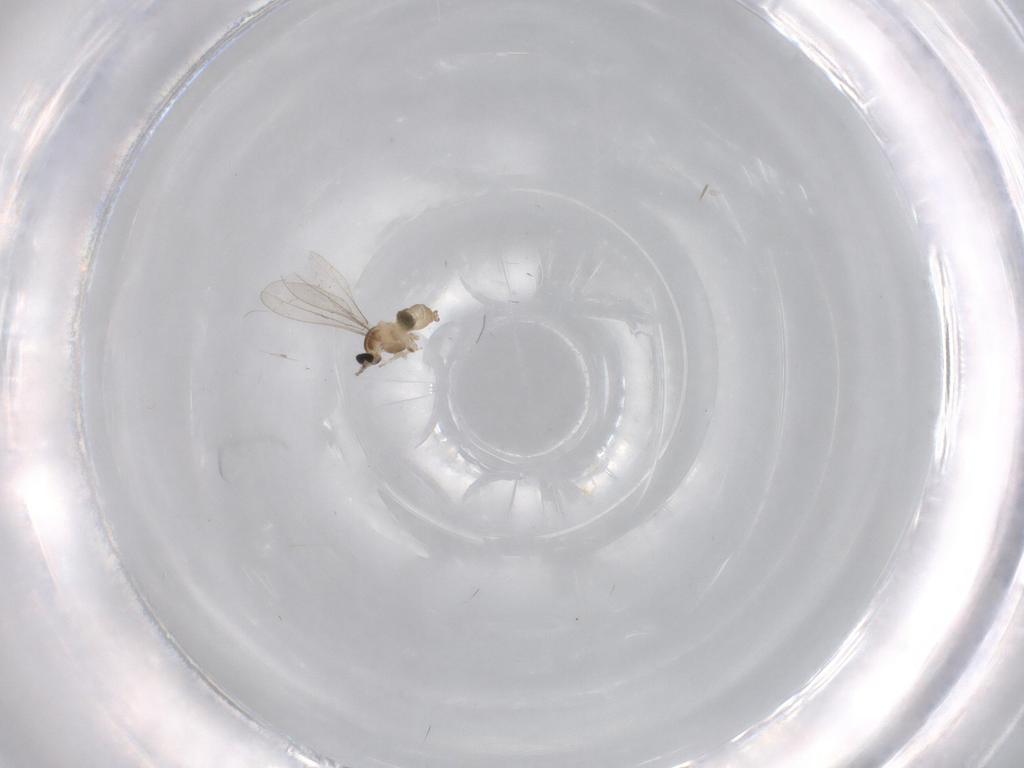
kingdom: Animalia
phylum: Arthropoda
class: Insecta
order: Diptera
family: Cecidomyiidae
